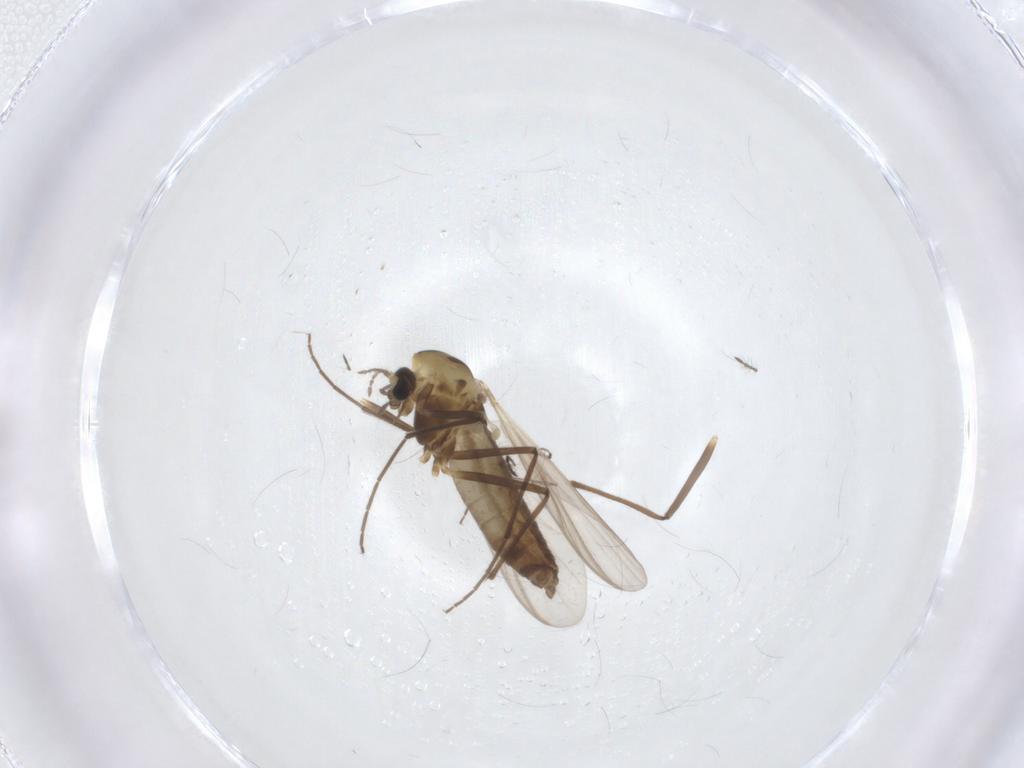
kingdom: Animalia
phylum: Arthropoda
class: Insecta
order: Diptera
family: Chironomidae
